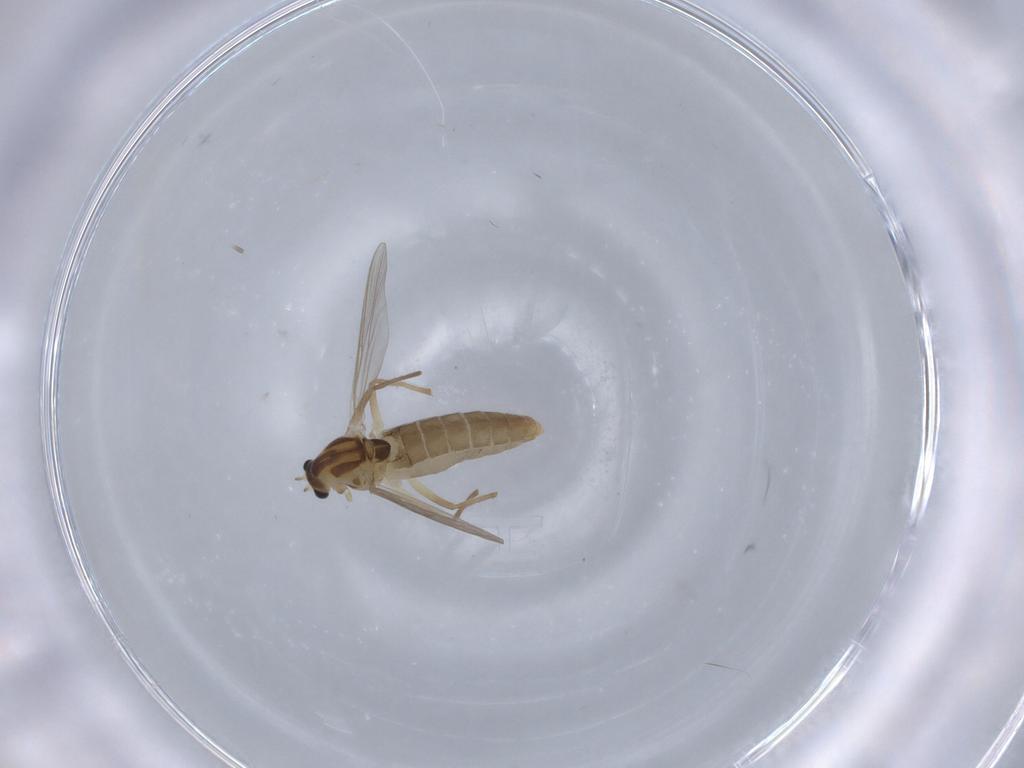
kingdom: Animalia
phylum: Arthropoda
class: Insecta
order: Diptera
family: Chironomidae
